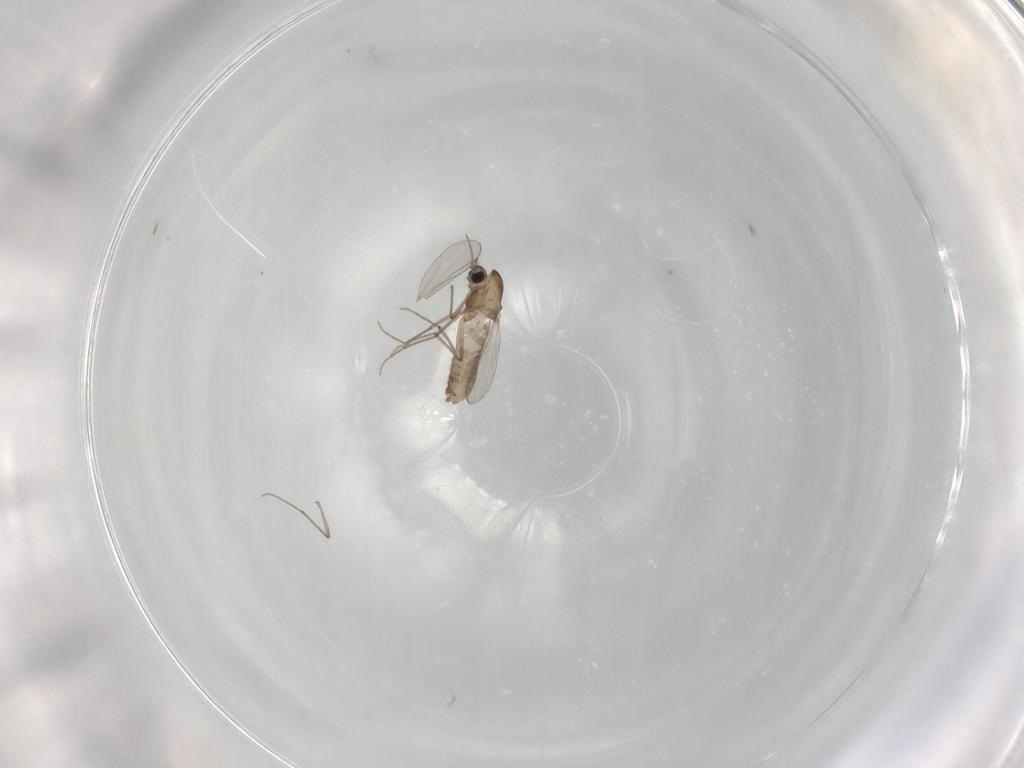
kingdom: Animalia
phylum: Arthropoda
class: Insecta
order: Diptera
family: Chironomidae
